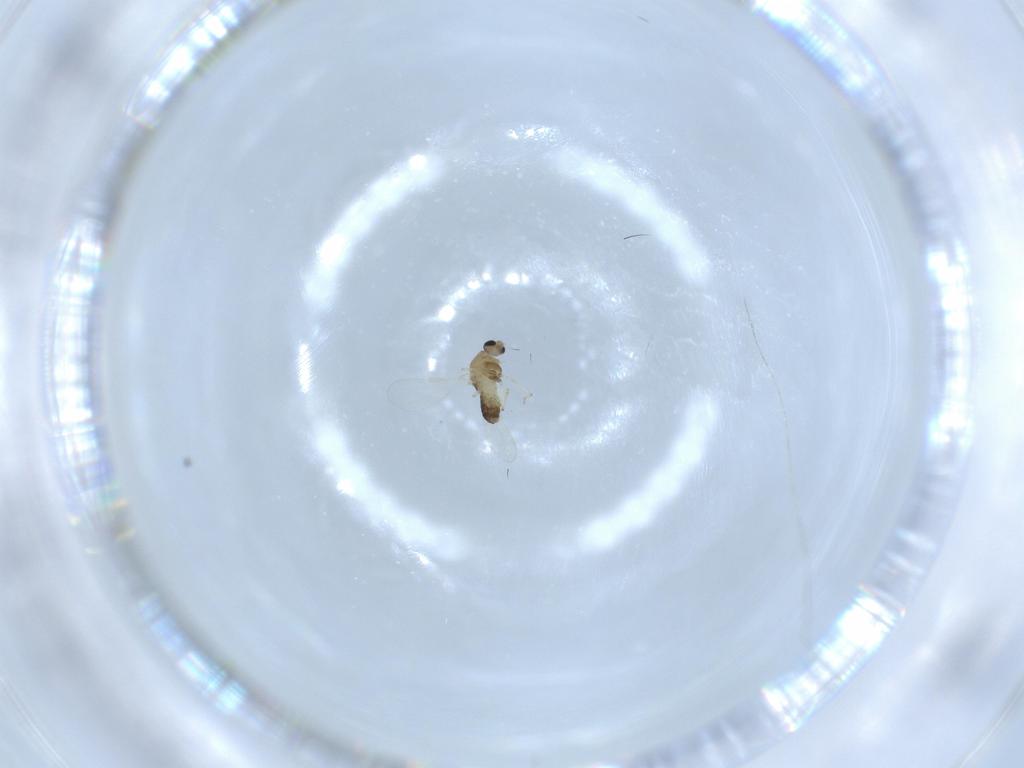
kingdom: Animalia
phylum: Arthropoda
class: Insecta
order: Diptera
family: Chironomidae
